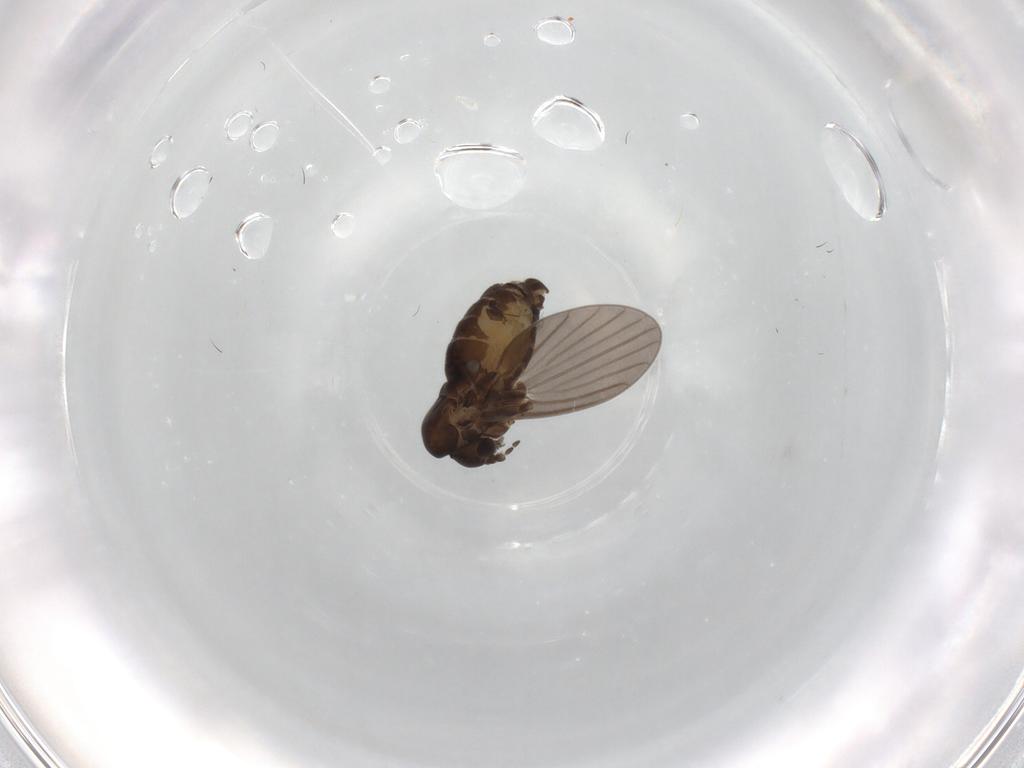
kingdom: Animalia
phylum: Arthropoda
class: Insecta
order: Diptera
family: Psychodidae
